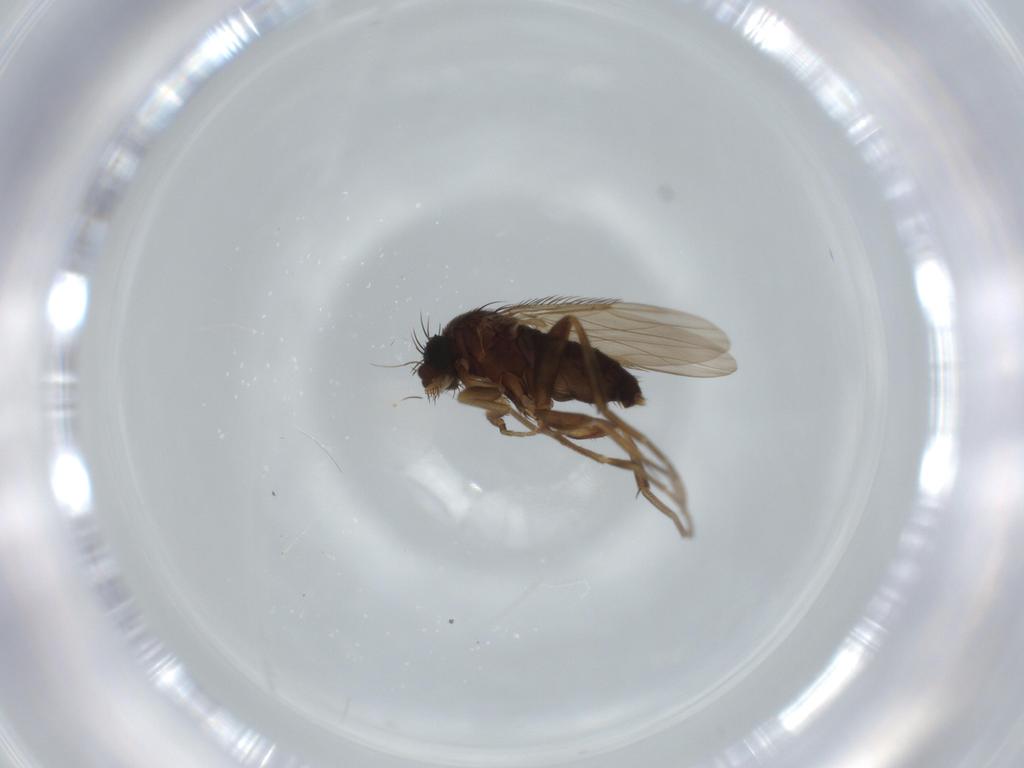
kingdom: Animalia
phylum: Arthropoda
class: Insecta
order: Diptera
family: Phoridae
